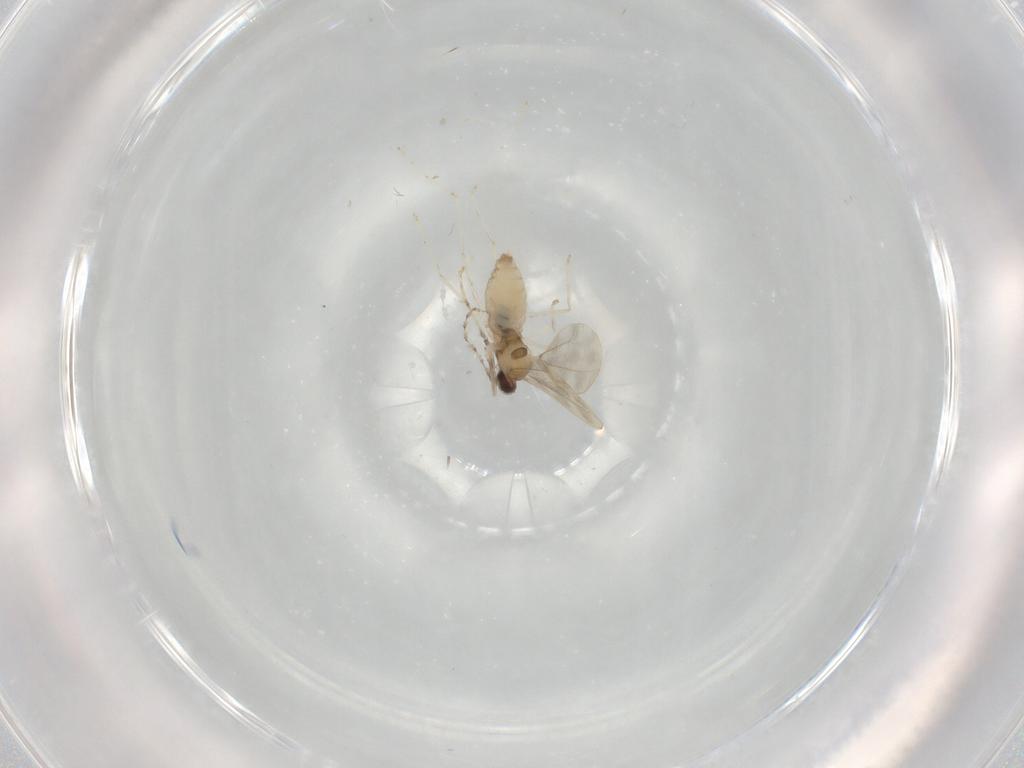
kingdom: Animalia
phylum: Arthropoda
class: Insecta
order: Diptera
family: Cecidomyiidae
